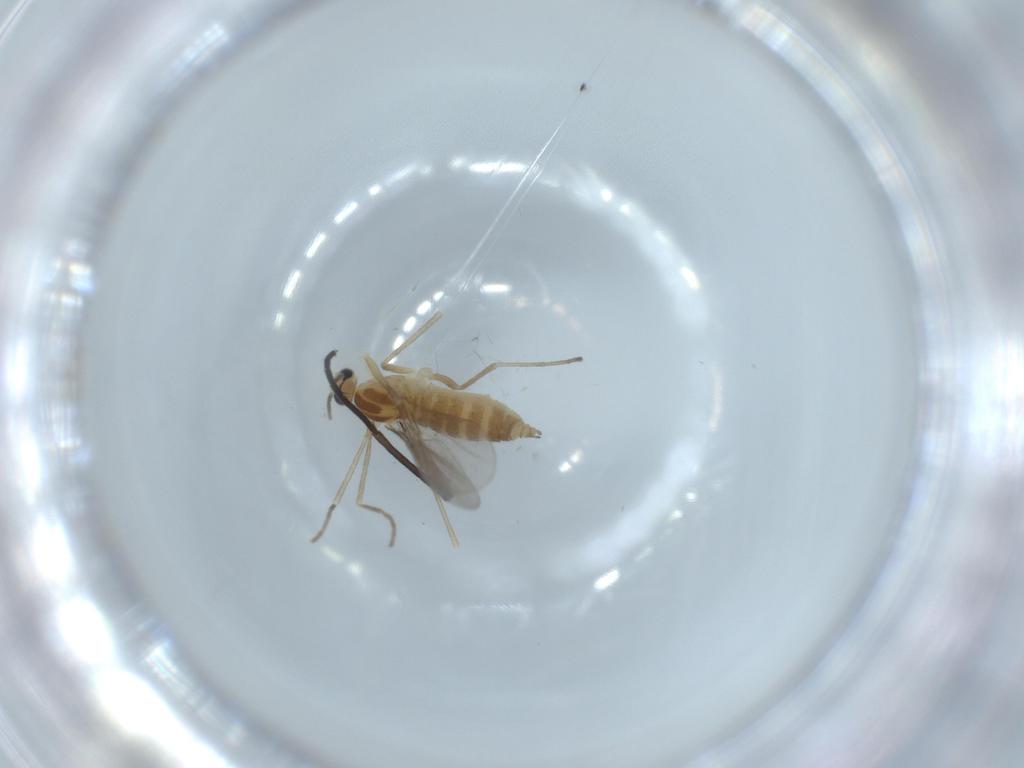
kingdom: Animalia
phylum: Arthropoda
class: Insecta
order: Diptera
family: Cecidomyiidae
